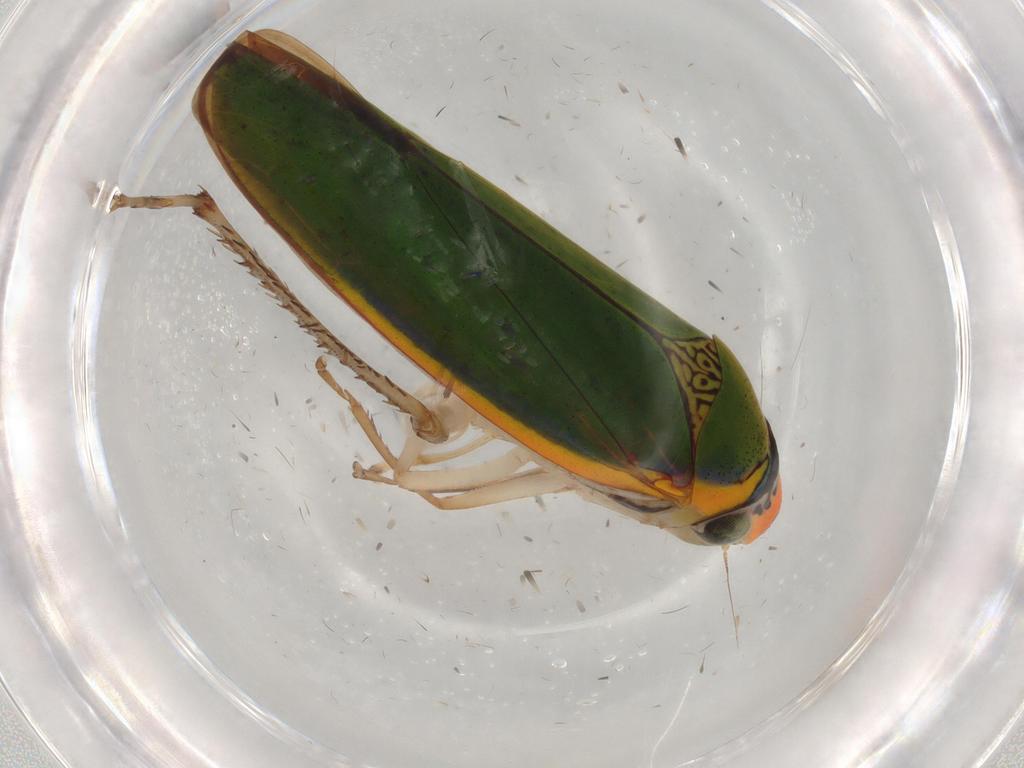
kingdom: Animalia
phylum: Arthropoda
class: Insecta
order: Hemiptera
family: Cicadellidae
